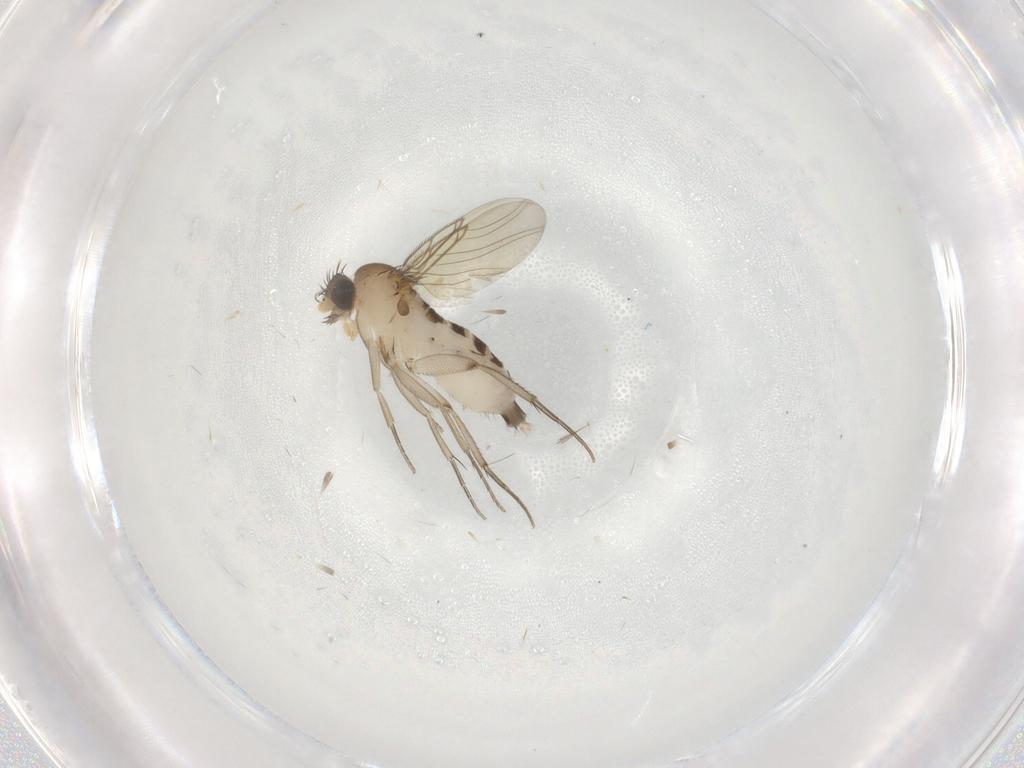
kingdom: Animalia
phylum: Arthropoda
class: Insecta
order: Diptera
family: Phoridae
